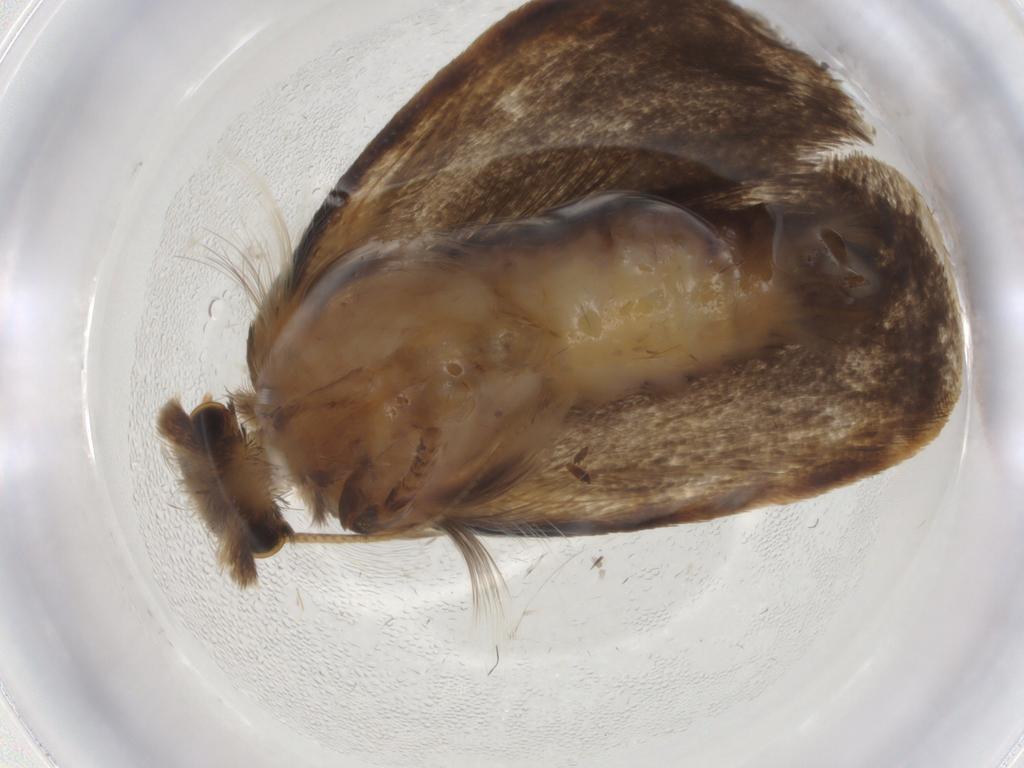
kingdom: Animalia
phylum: Arthropoda
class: Insecta
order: Lepidoptera
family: Tineidae
